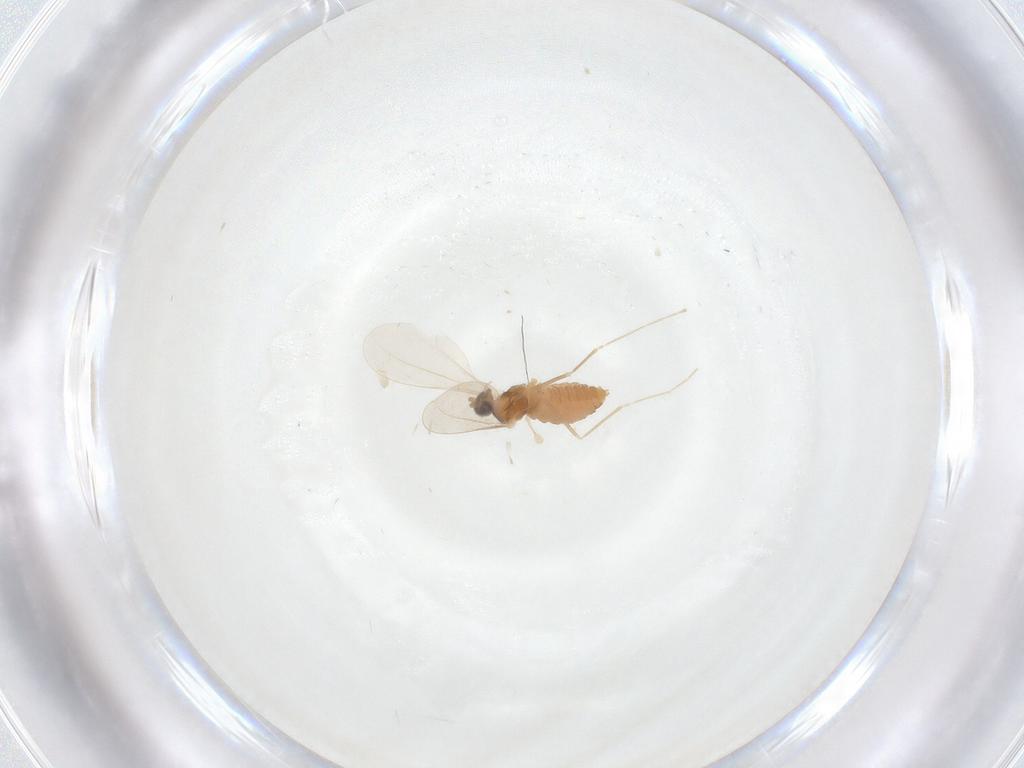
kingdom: Animalia
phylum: Arthropoda
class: Insecta
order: Diptera
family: Cecidomyiidae
